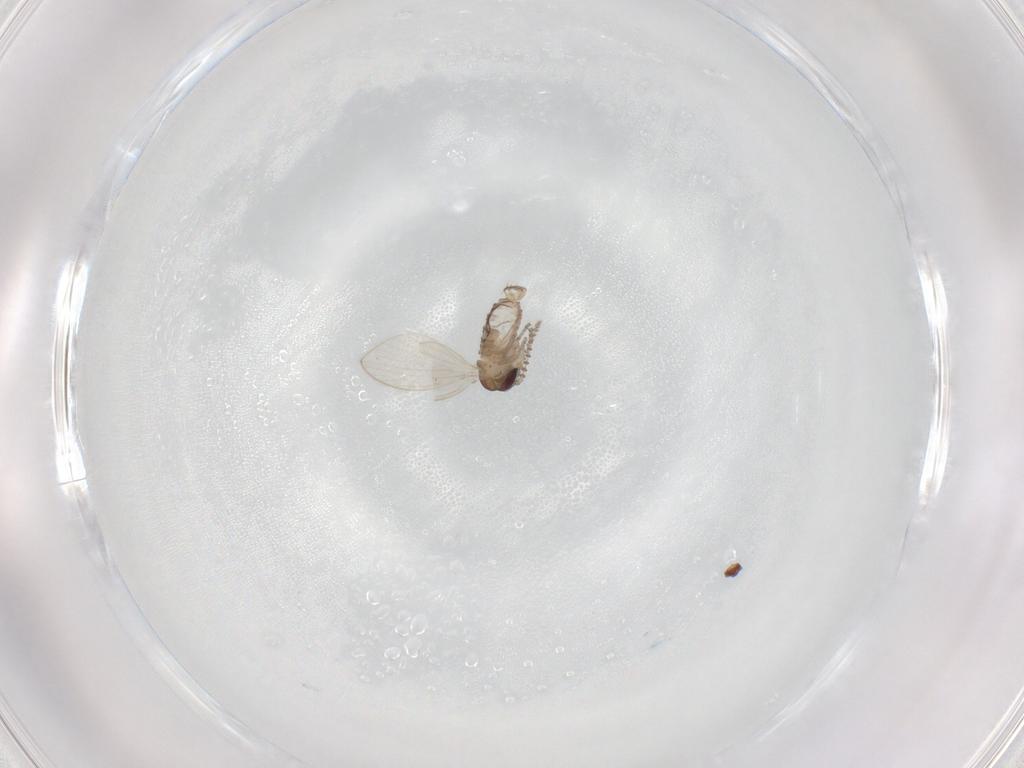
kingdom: Animalia
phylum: Arthropoda
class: Insecta
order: Diptera
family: Psychodidae
